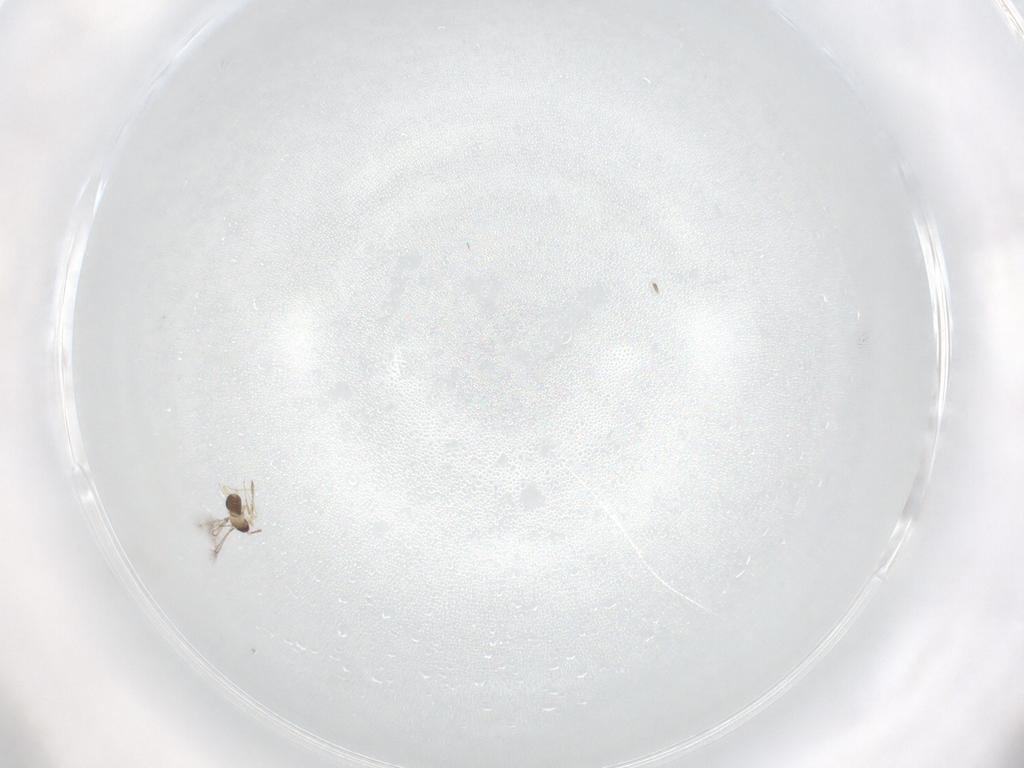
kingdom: Animalia
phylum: Arthropoda
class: Insecta
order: Hymenoptera
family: Mymaridae
